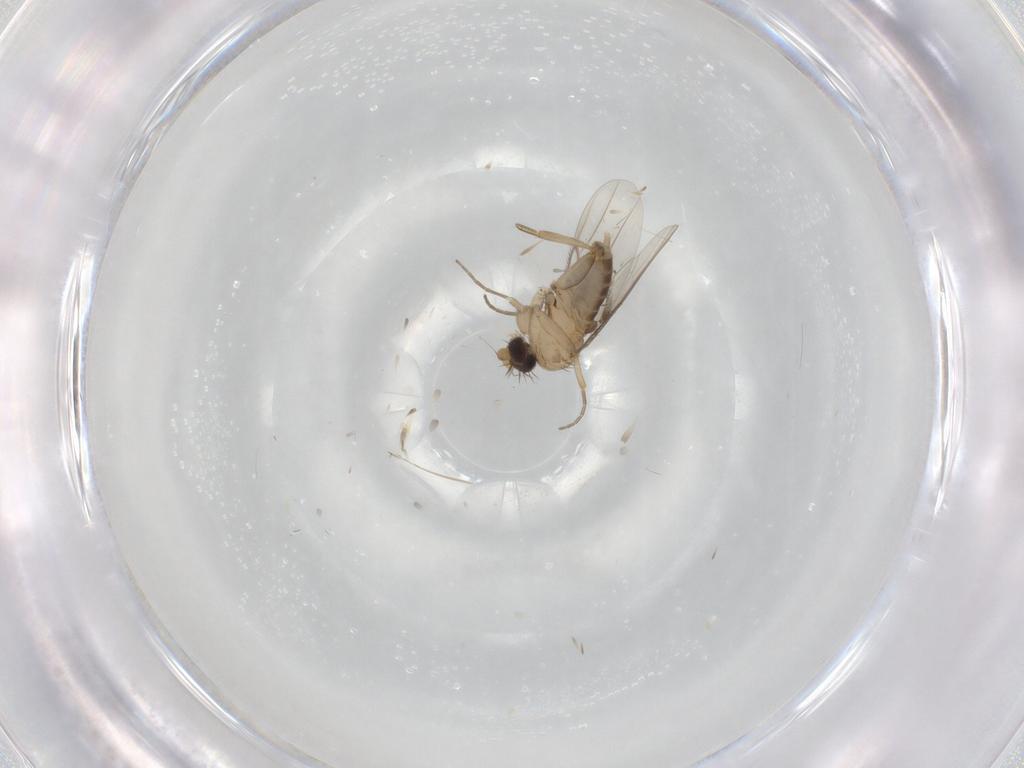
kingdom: Animalia
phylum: Arthropoda
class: Insecta
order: Diptera
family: Phoridae
